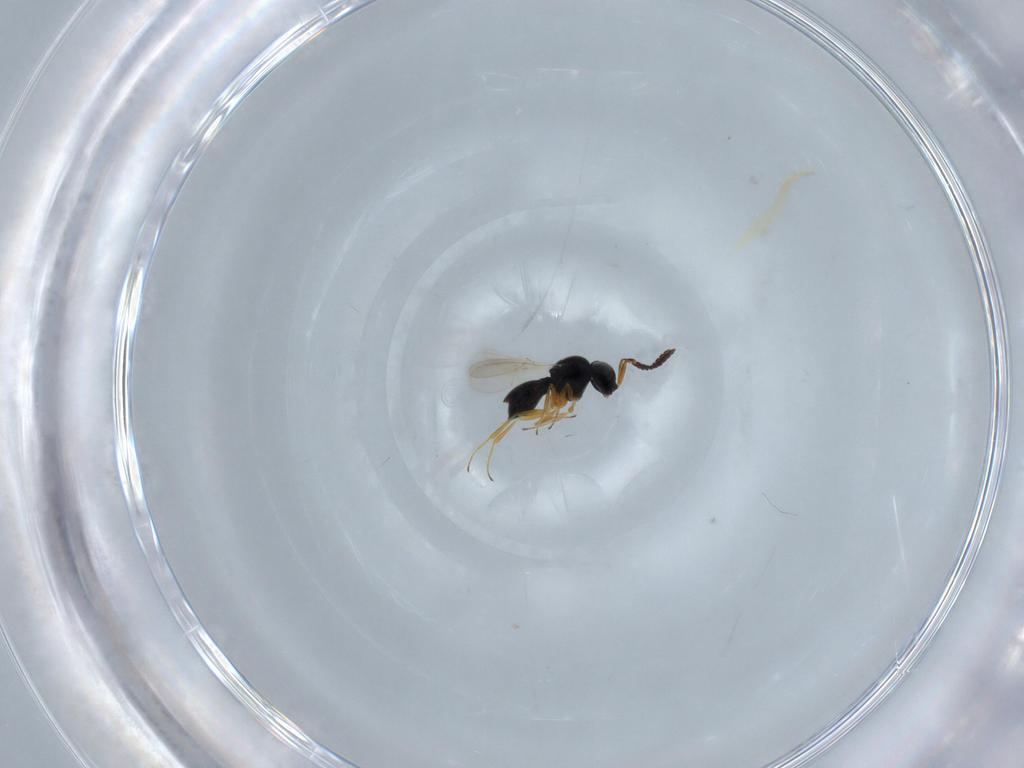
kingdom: Animalia
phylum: Arthropoda
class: Insecta
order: Hymenoptera
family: Scelionidae
